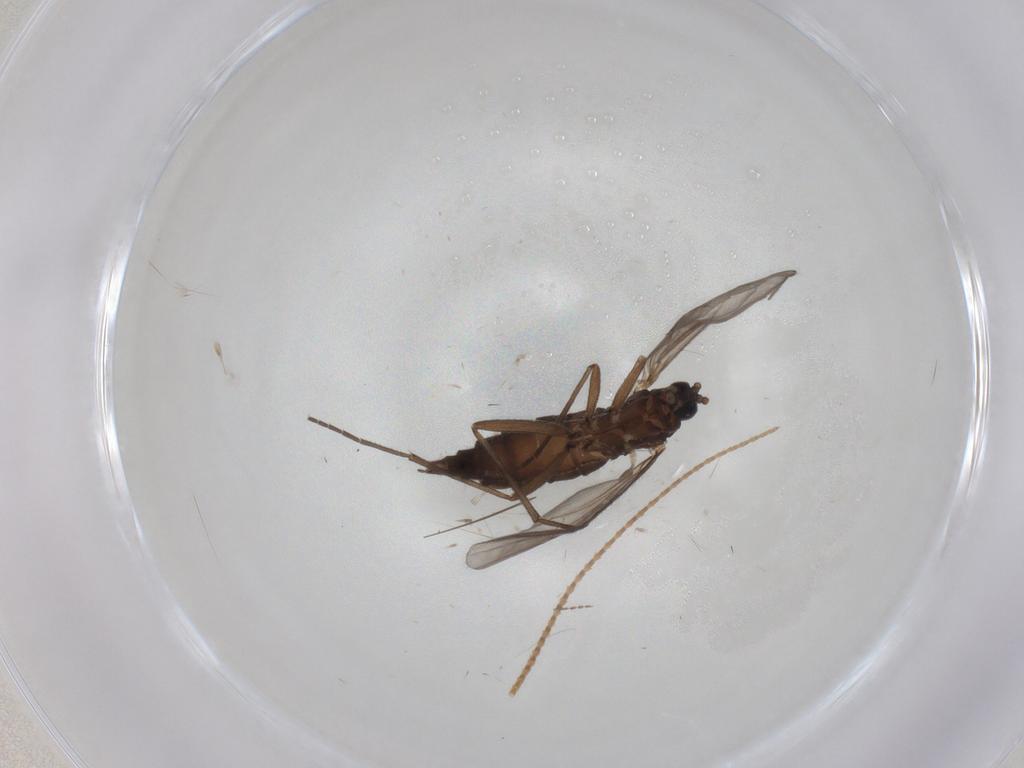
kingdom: Animalia
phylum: Arthropoda
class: Insecta
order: Diptera
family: Sciaridae
